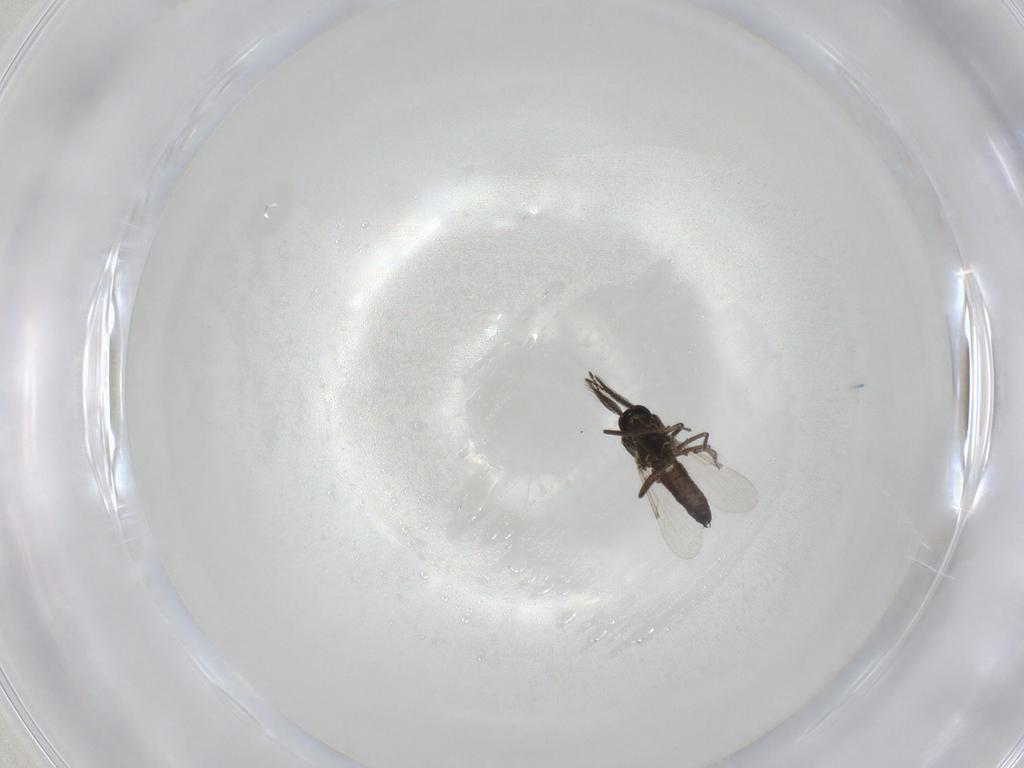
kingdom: Animalia
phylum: Arthropoda
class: Insecta
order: Diptera
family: Ceratopogonidae
